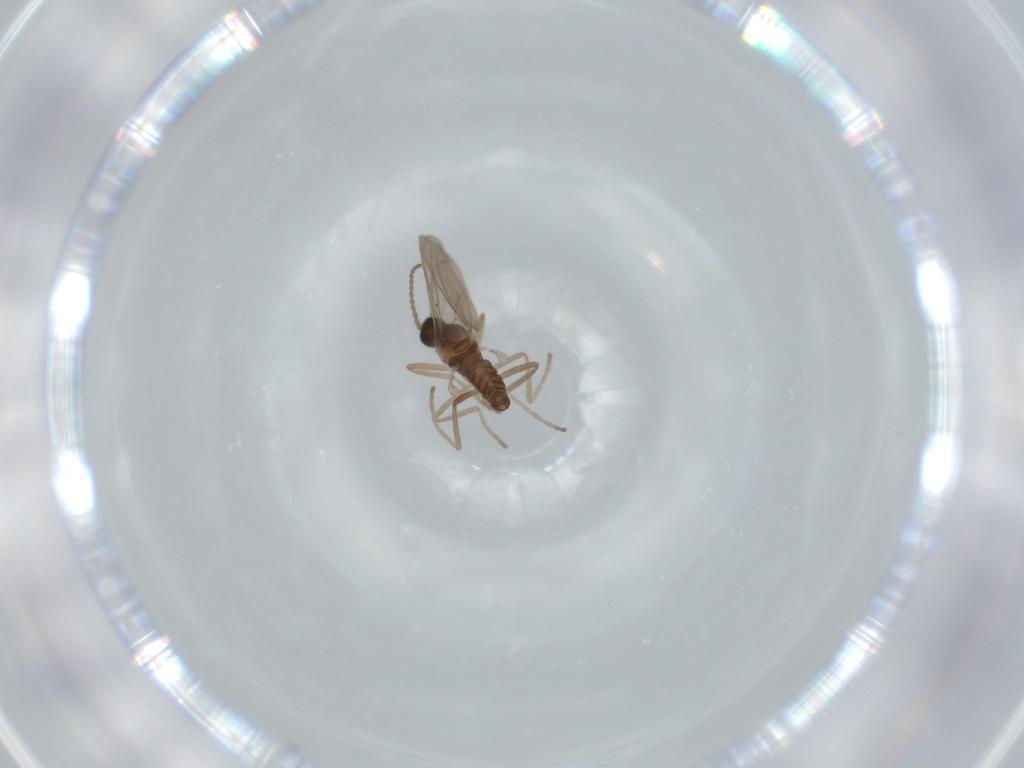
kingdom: Animalia
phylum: Arthropoda
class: Insecta
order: Diptera
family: Cecidomyiidae
